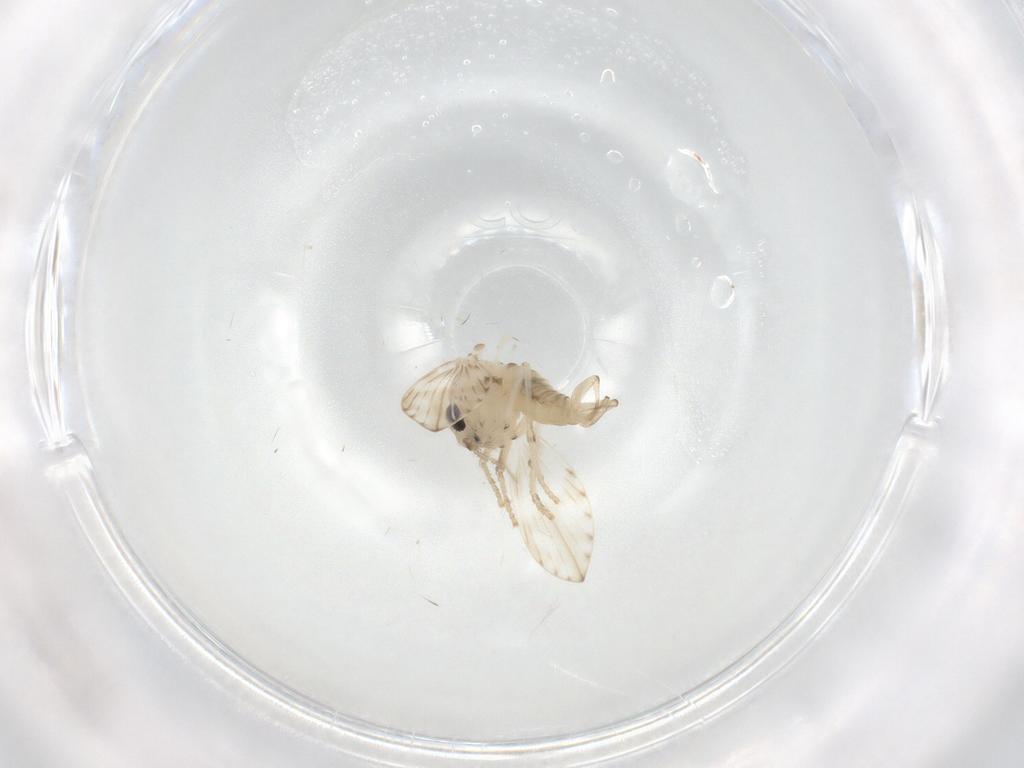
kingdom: Animalia
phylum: Arthropoda
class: Insecta
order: Diptera
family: Psychodidae
